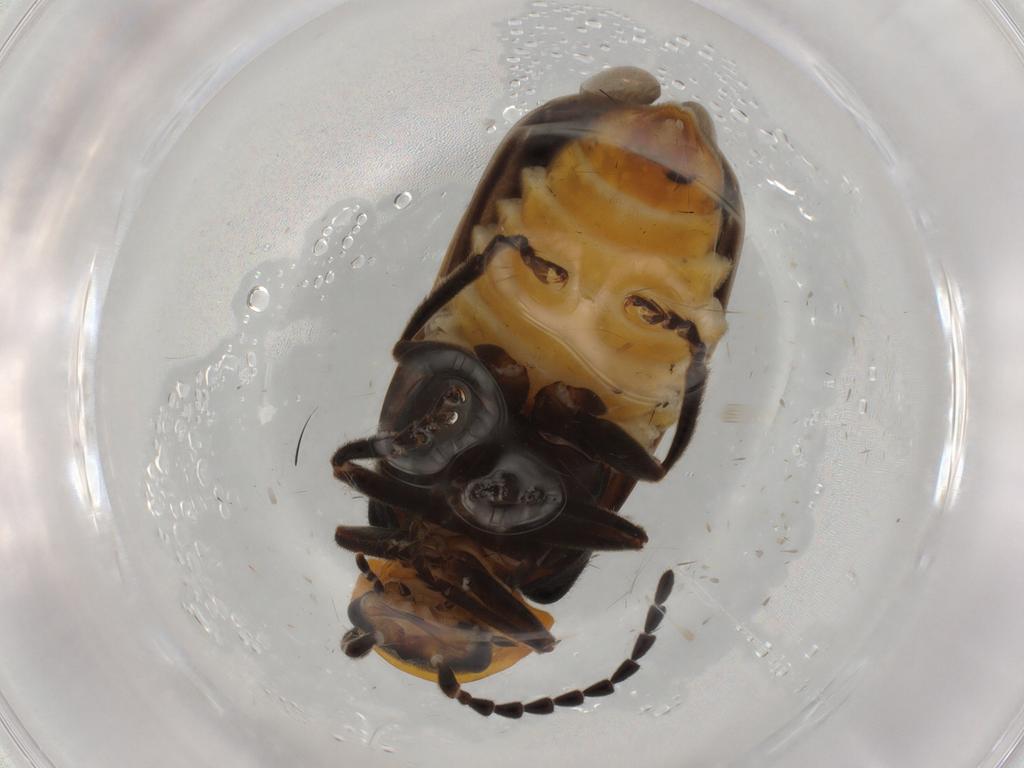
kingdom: Animalia
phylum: Arthropoda
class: Insecta
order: Coleoptera
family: Cantharidae
